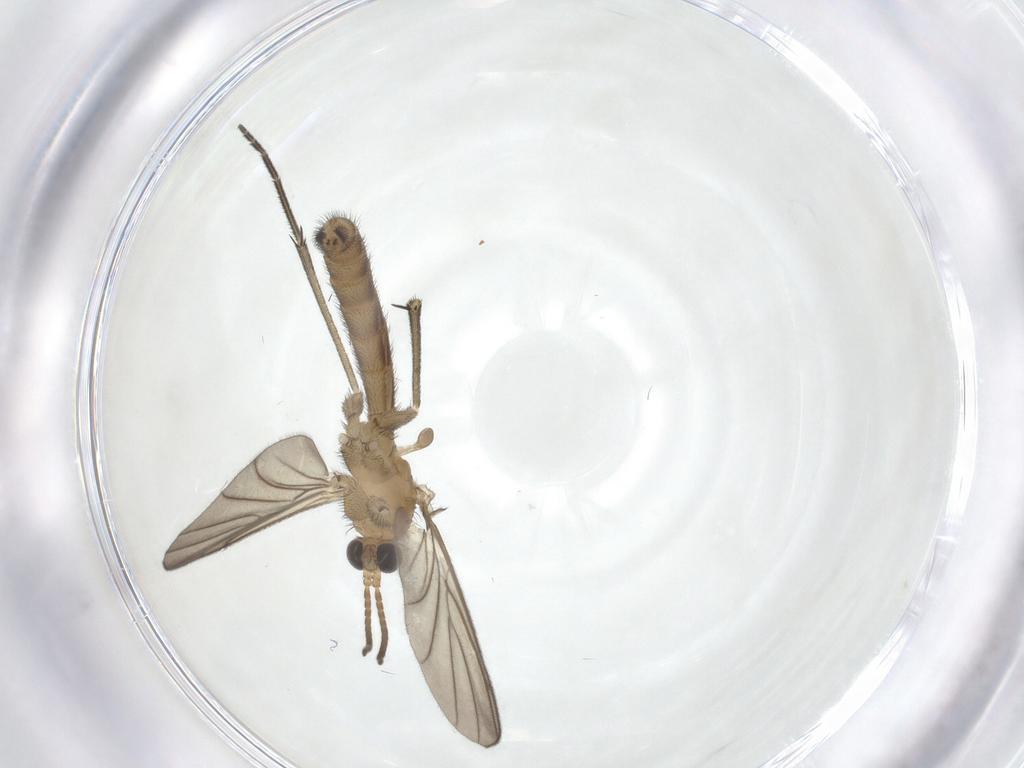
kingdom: Animalia
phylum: Arthropoda
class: Insecta
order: Diptera
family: Keroplatidae
